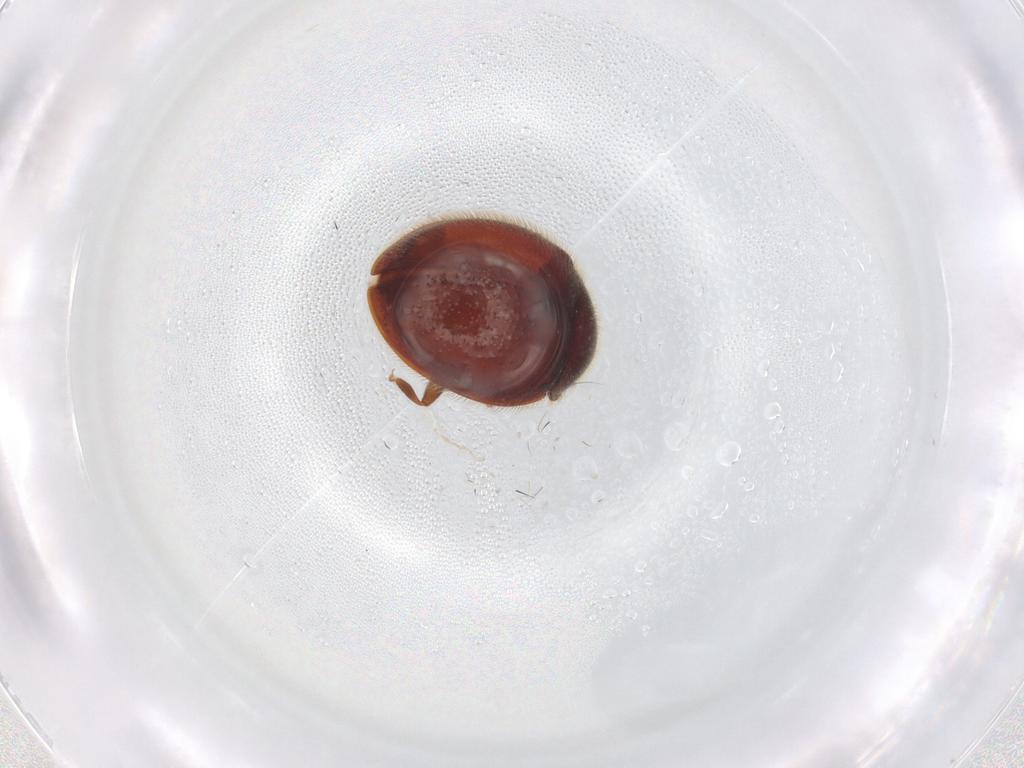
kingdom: Animalia
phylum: Arthropoda
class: Insecta
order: Coleoptera
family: Anamorphidae
